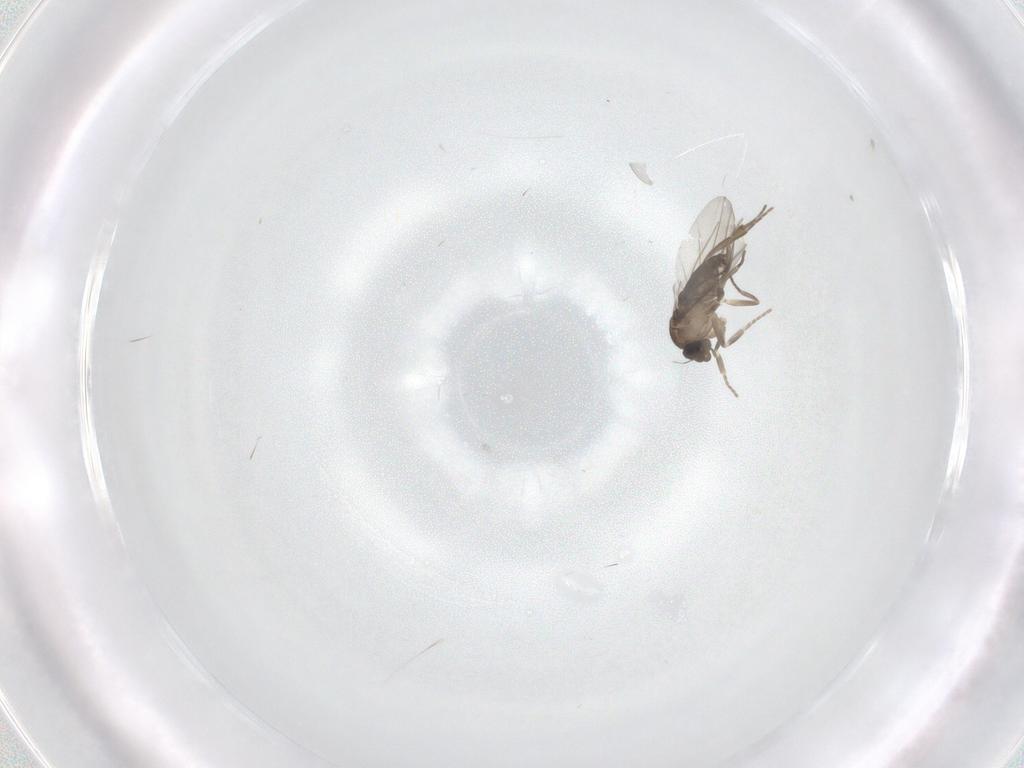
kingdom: Animalia
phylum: Arthropoda
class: Insecta
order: Diptera
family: Phoridae
